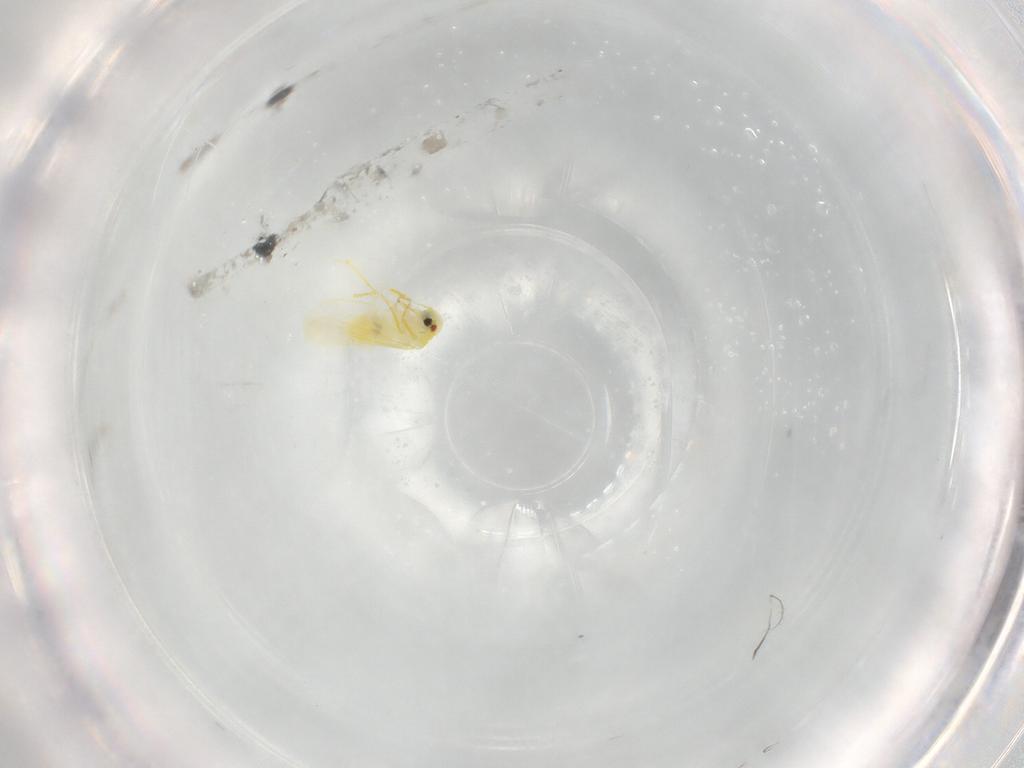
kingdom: Animalia
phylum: Arthropoda
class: Insecta
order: Hemiptera
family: Aleyrodidae
